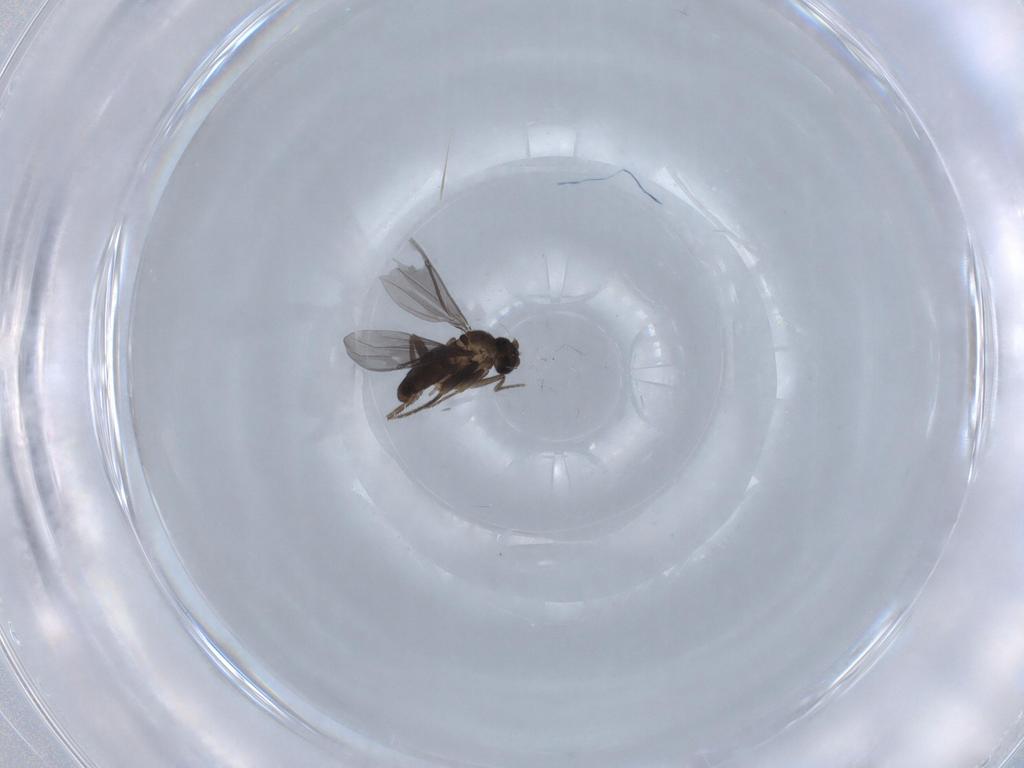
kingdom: Animalia
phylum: Arthropoda
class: Insecta
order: Diptera
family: Phoridae
